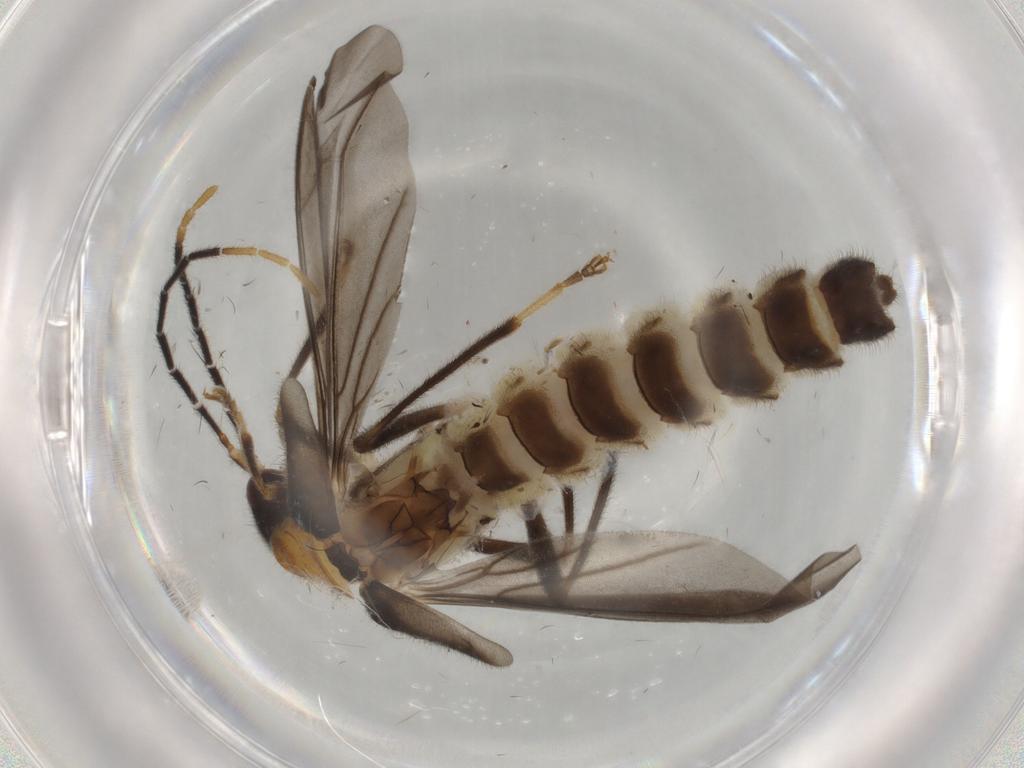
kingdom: Animalia
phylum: Arthropoda
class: Insecta
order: Coleoptera
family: Cantharidae
